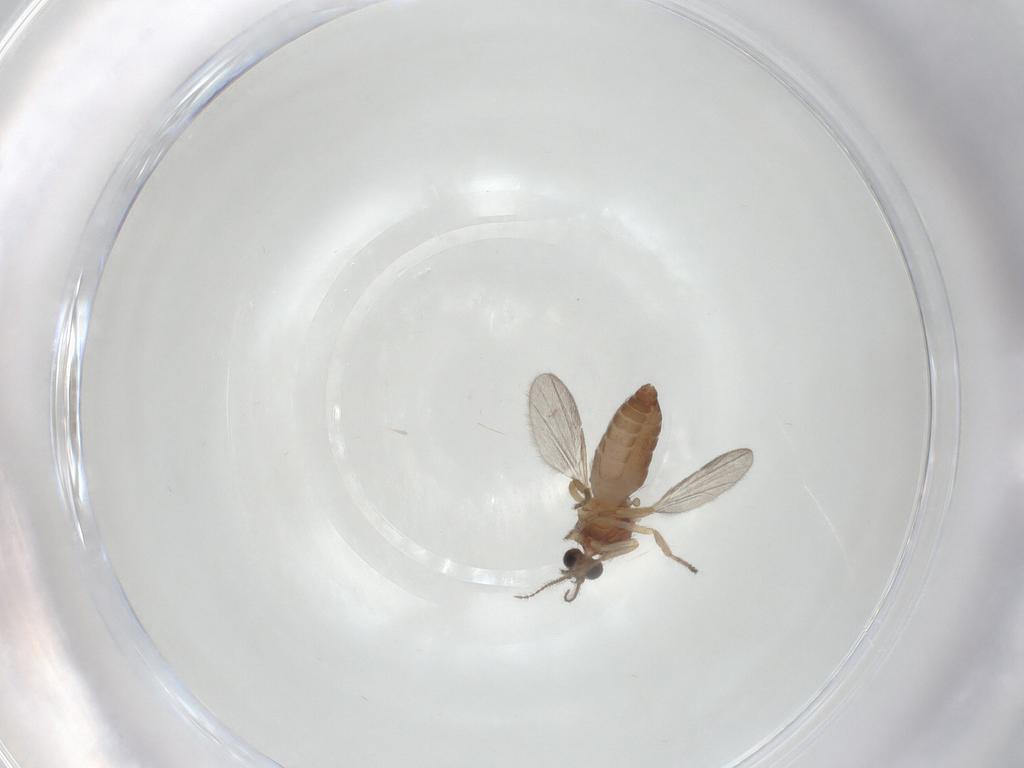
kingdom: Animalia
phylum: Arthropoda
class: Insecta
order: Diptera
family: Ceratopogonidae
